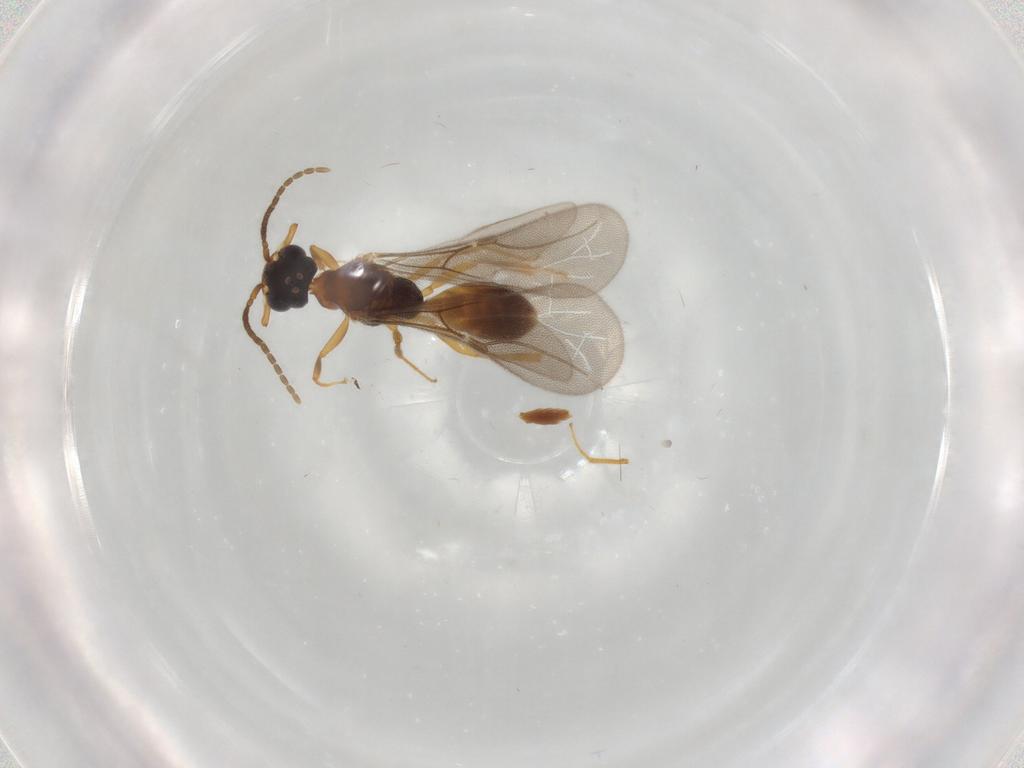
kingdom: Animalia
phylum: Arthropoda
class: Insecta
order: Hymenoptera
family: Bethylidae
